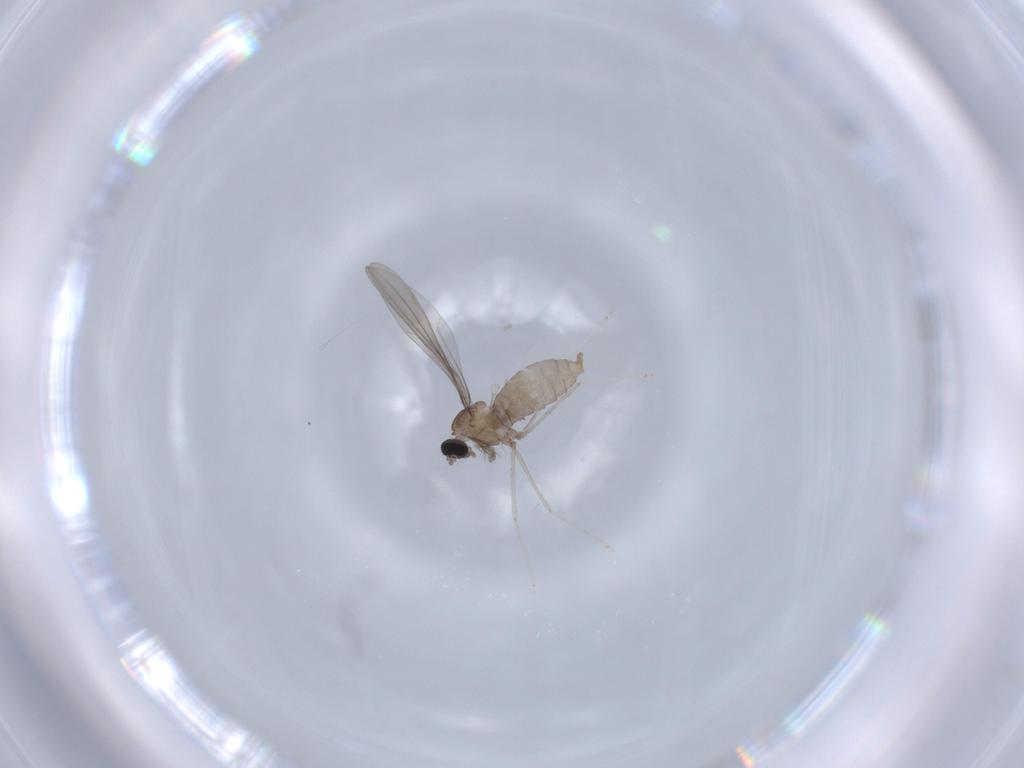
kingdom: Animalia
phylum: Arthropoda
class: Insecta
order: Diptera
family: Cecidomyiidae
